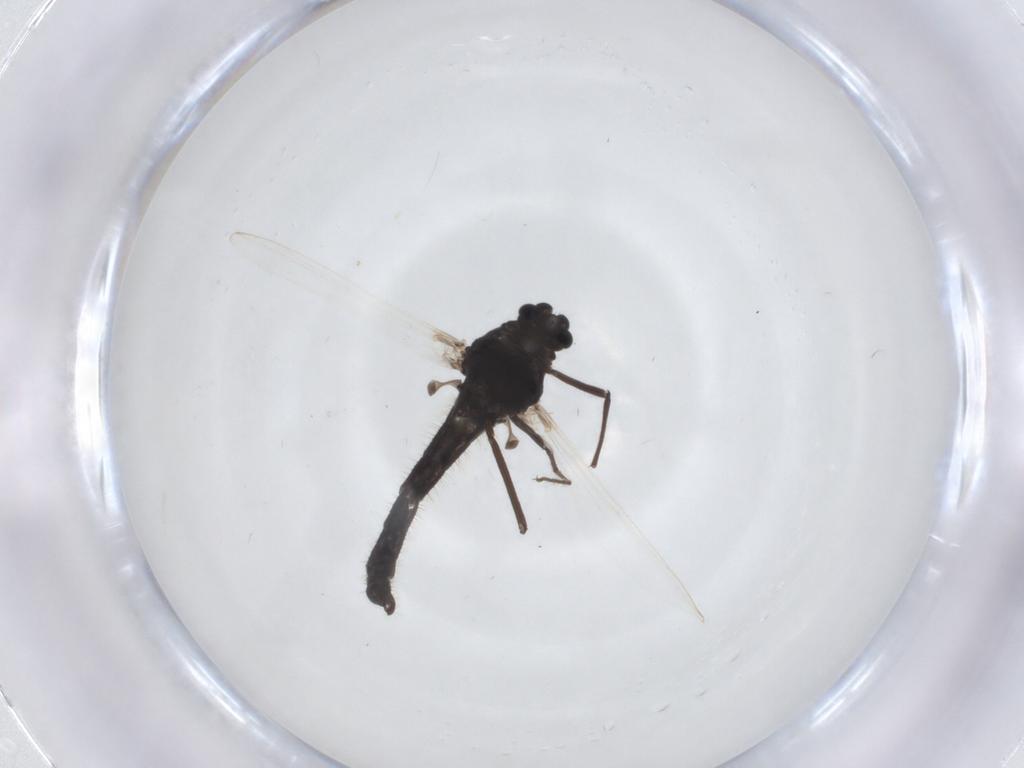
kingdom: Animalia
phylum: Arthropoda
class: Insecta
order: Diptera
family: Chironomidae
